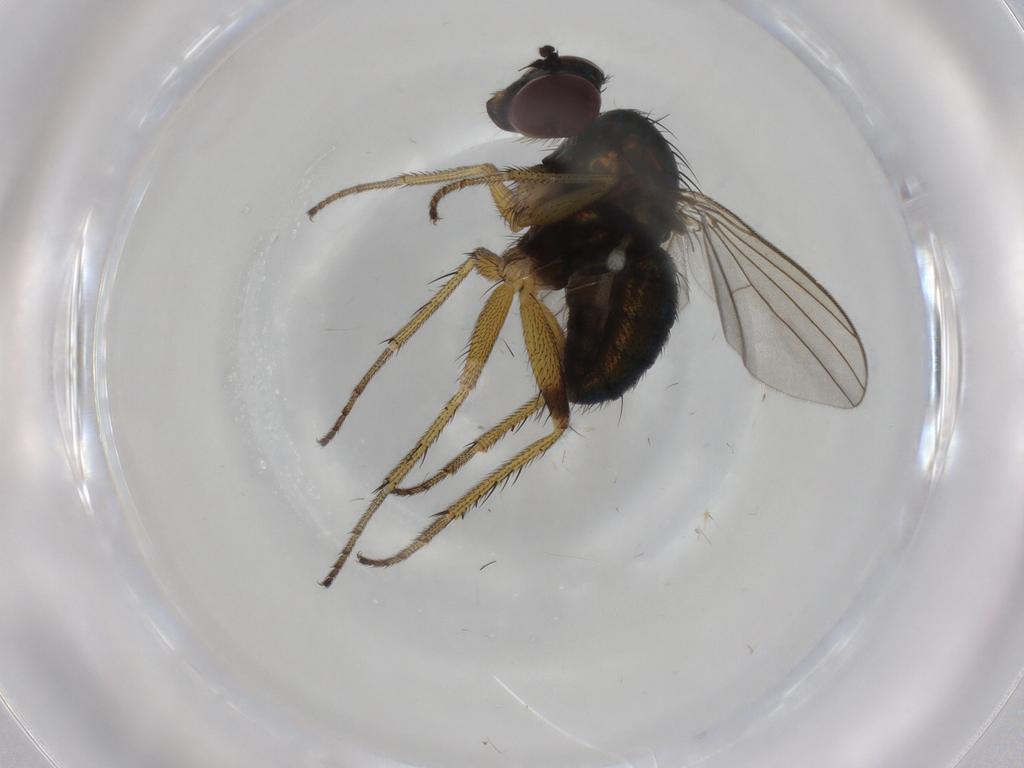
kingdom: Animalia
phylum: Arthropoda
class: Insecta
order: Diptera
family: Dolichopodidae
